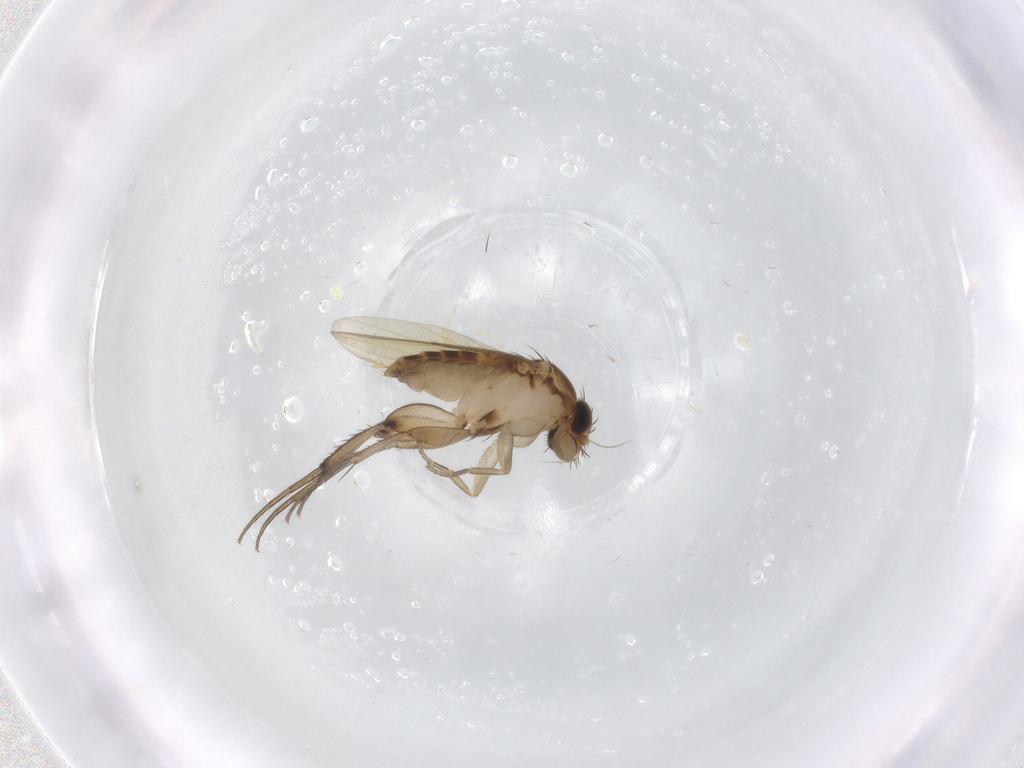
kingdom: Animalia
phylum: Arthropoda
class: Insecta
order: Diptera
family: Phoridae
